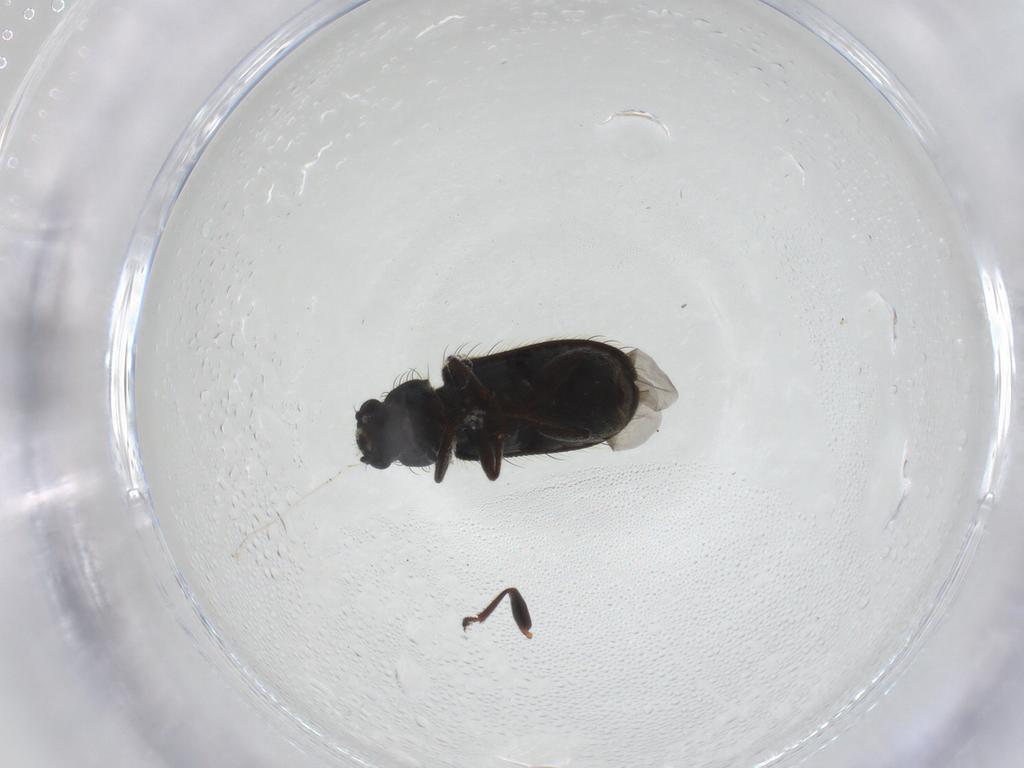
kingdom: Animalia
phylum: Arthropoda
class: Insecta
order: Coleoptera
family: Melyridae
